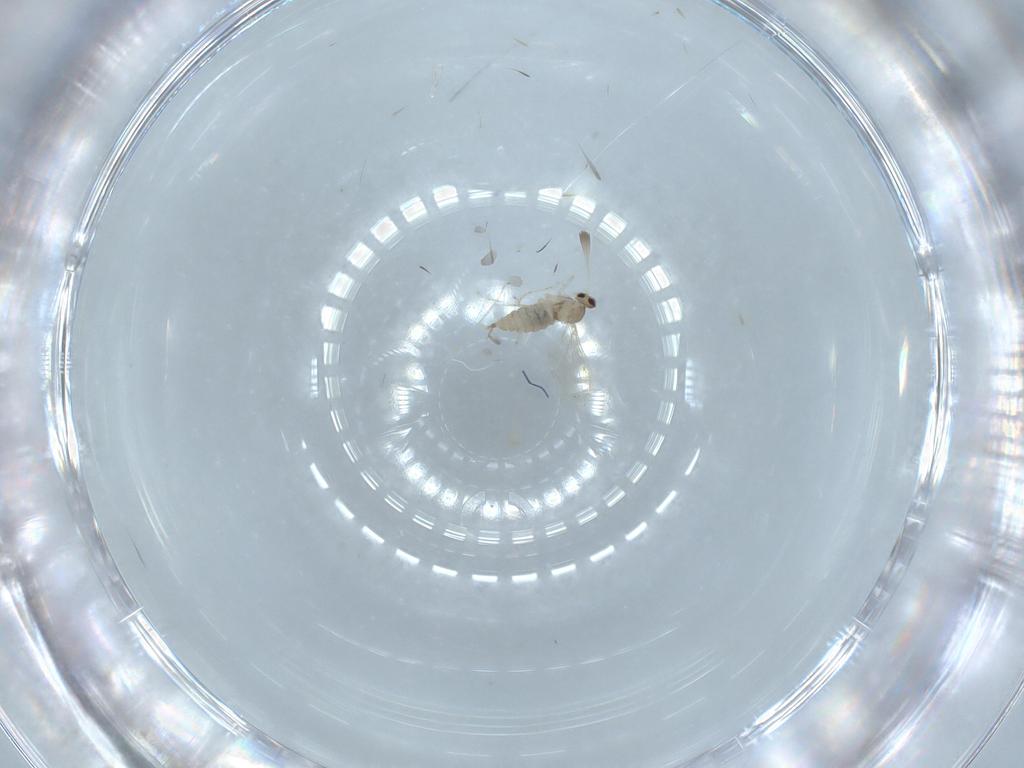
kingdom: Animalia
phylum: Arthropoda
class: Insecta
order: Diptera
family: Cecidomyiidae
